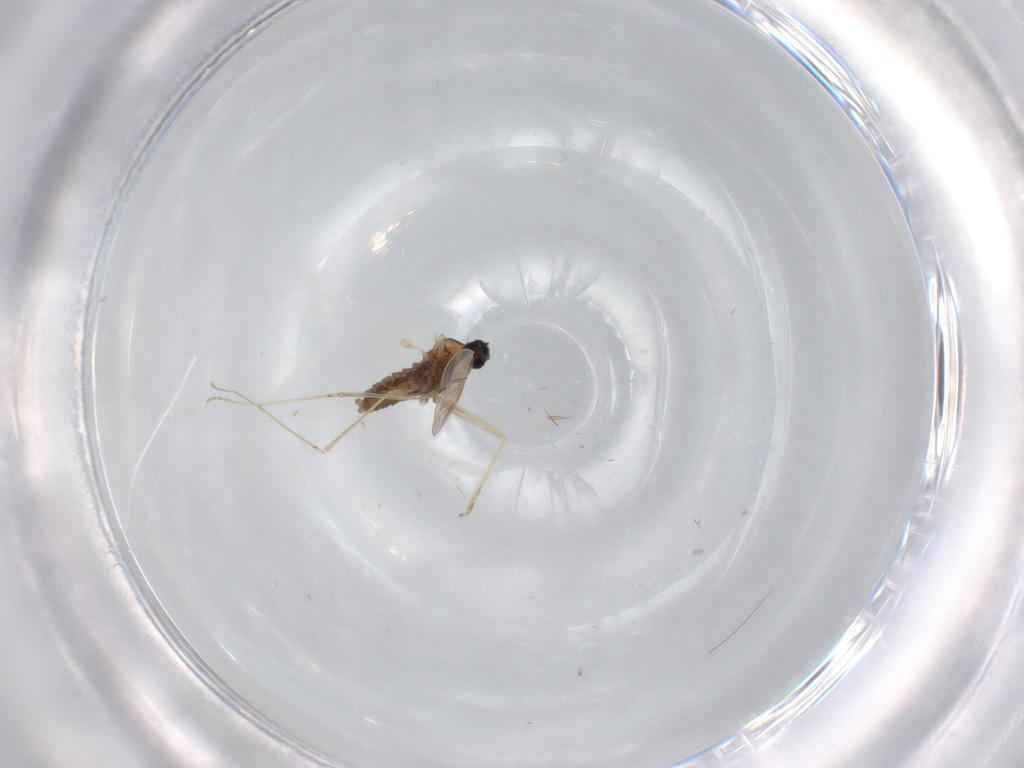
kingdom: Animalia
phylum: Arthropoda
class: Insecta
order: Diptera
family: Cecidomyiidae
